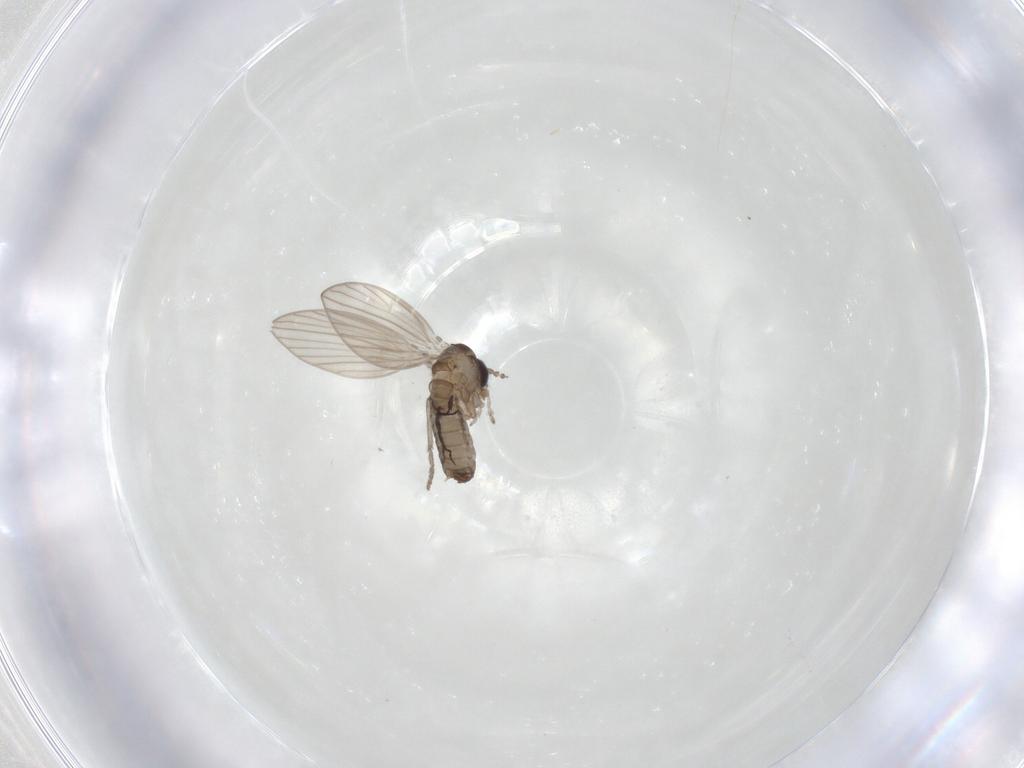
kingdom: Animalia
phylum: Arthropoda
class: Insecta
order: Diptera
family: Psychodidae
